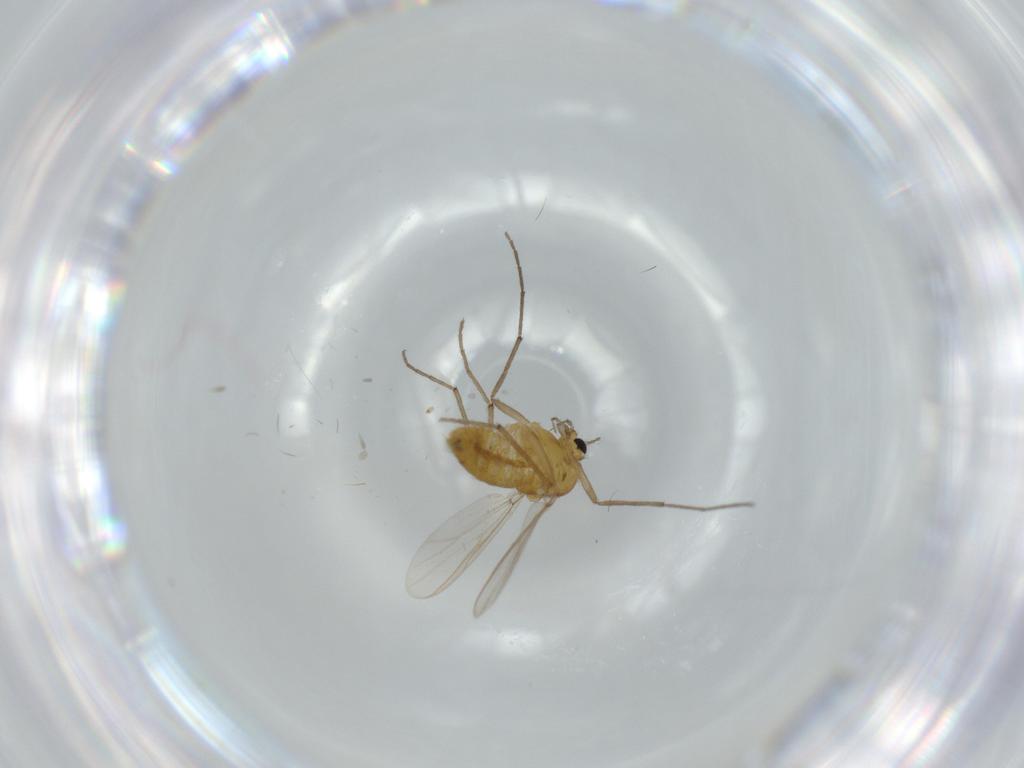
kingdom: Animalia
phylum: Arthropoda
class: Insecta
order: Diptera
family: Chironomidae
